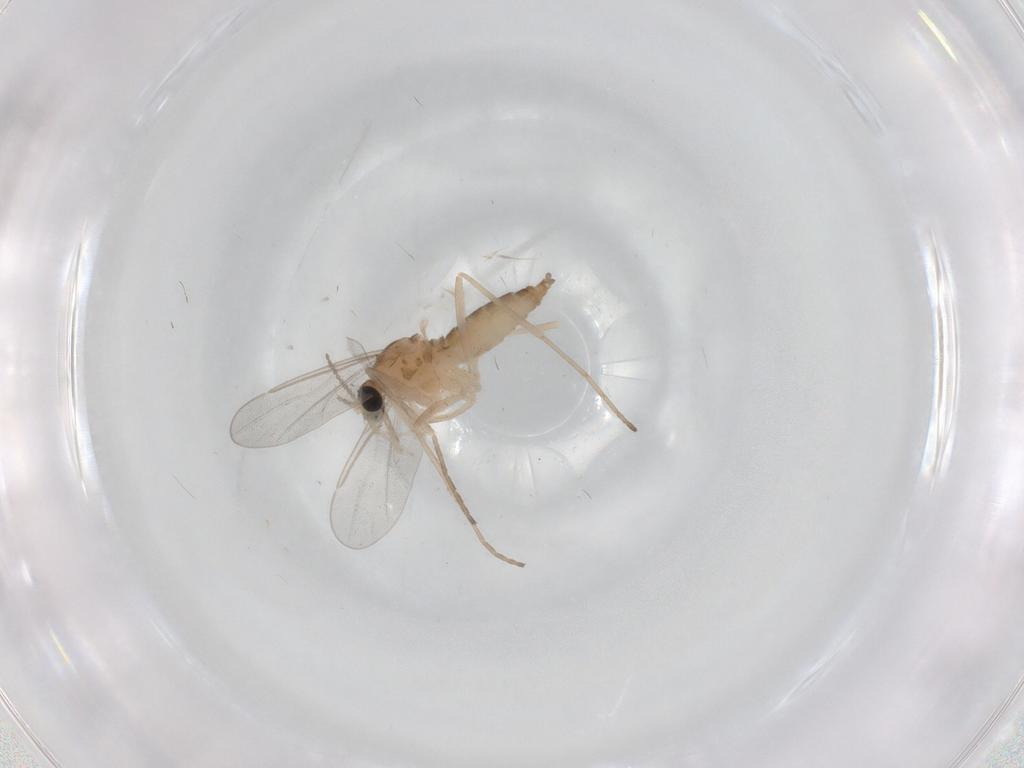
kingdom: Animalia
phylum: Arthropoda
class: Insecta
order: Diptera
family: Cecidomyiidae
